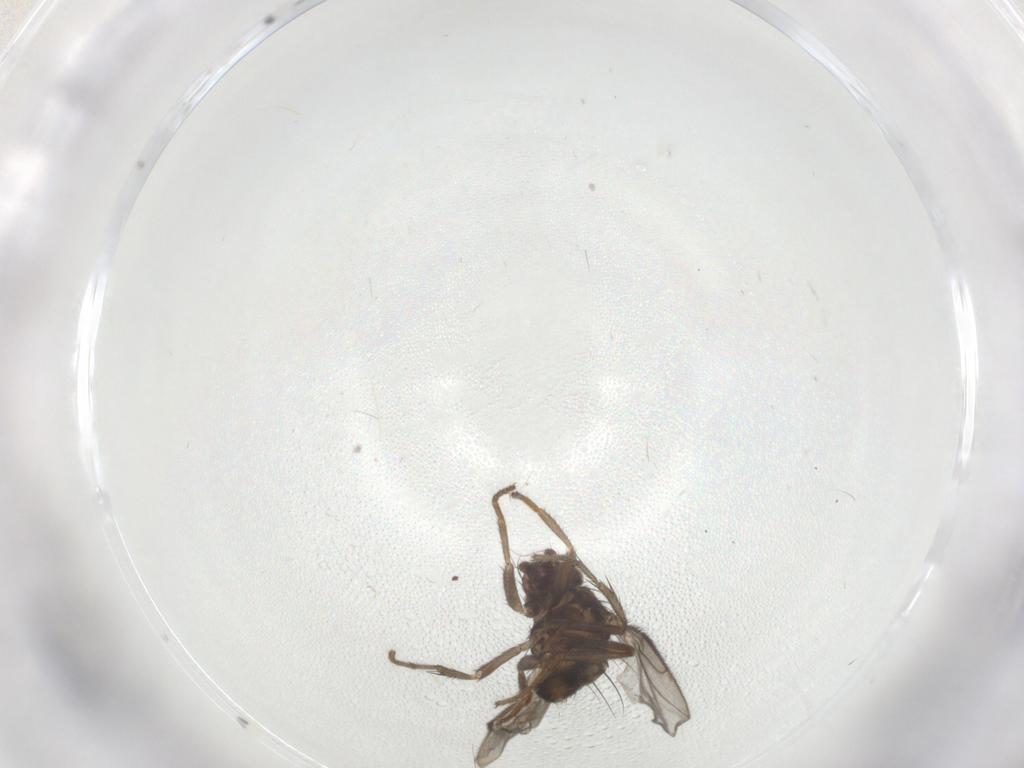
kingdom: Animalia
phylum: Arthropoda
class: Insecta
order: Diptera
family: Sphaeroceridae
